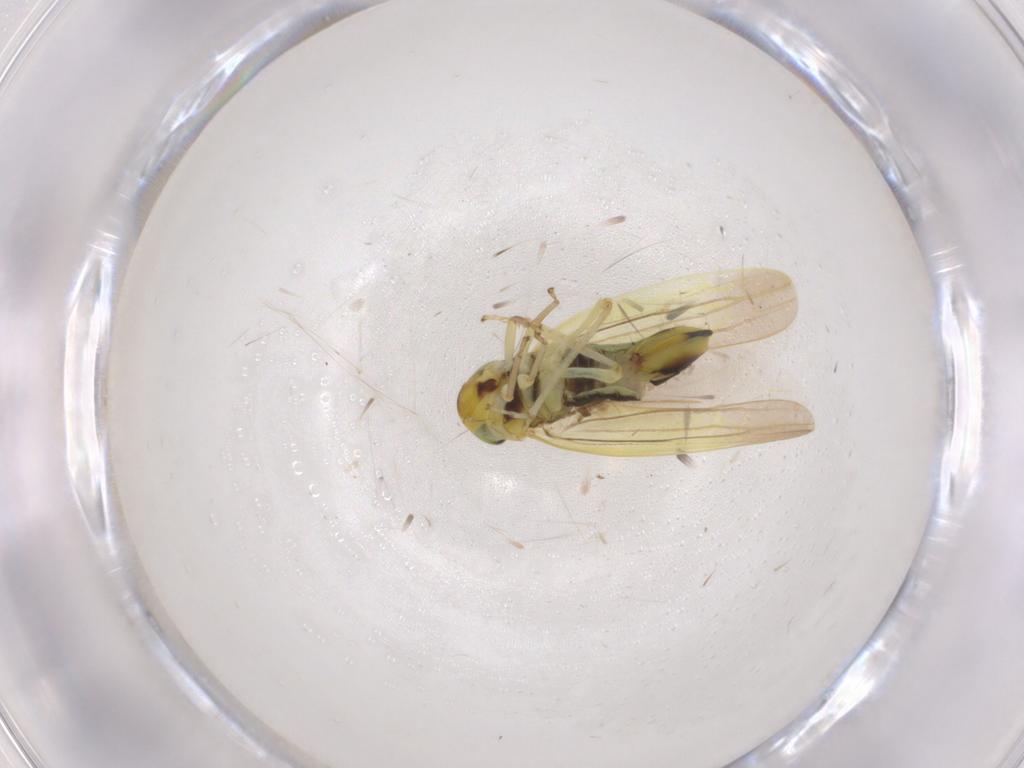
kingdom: Animalia
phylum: Arthropoda
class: Insecta
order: Hemiptera
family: Cicadellidae
